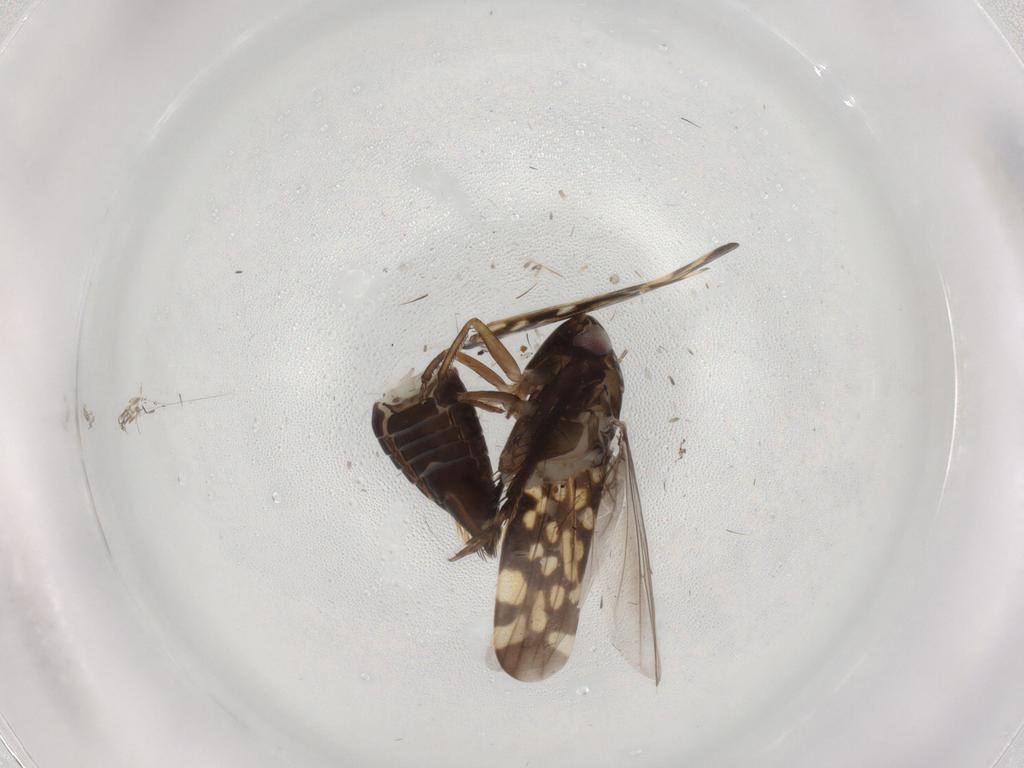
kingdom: Animalia
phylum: Arthropoda
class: Insecta
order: Hemiptera
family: Cicadellidae
